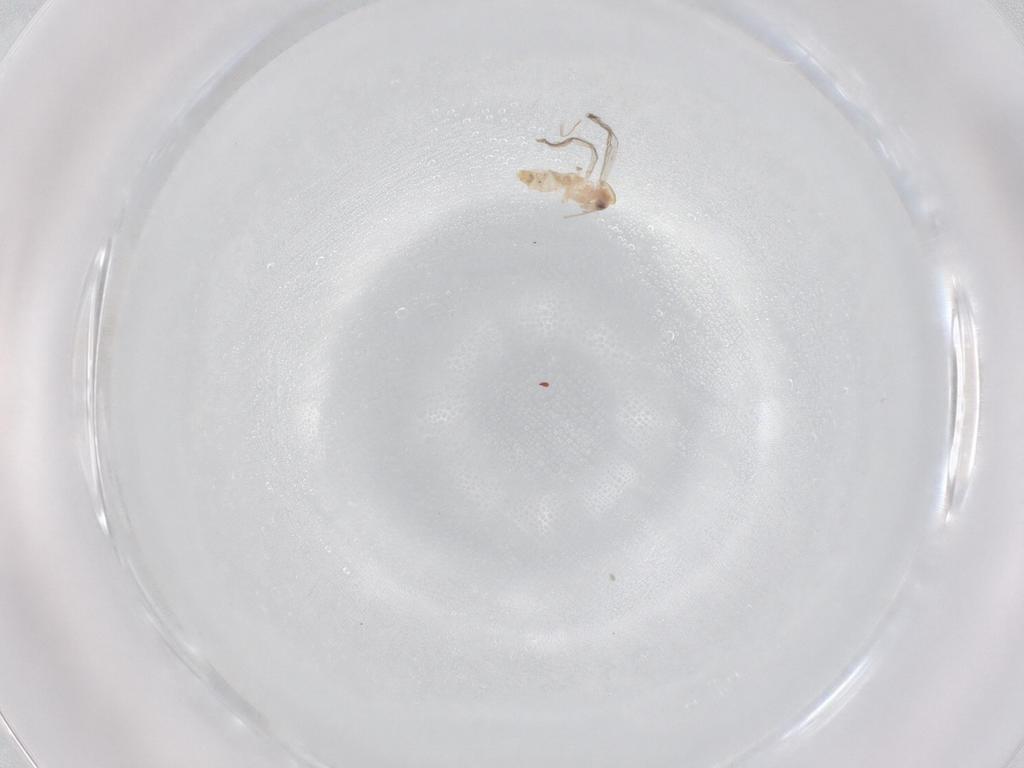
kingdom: Animalia
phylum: Arthropoda
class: Insecta
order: Diptera
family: Chironomidae
